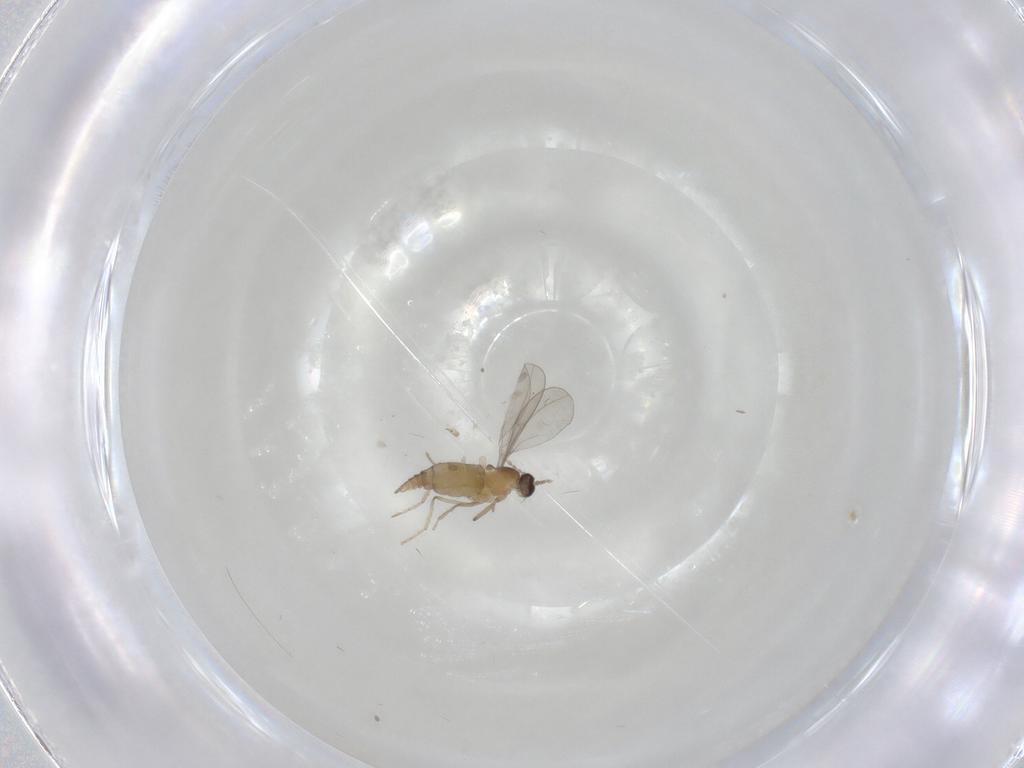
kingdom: Animalia
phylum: Arthropoda
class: Insecta
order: Diptera
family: Cecidomyiidae
